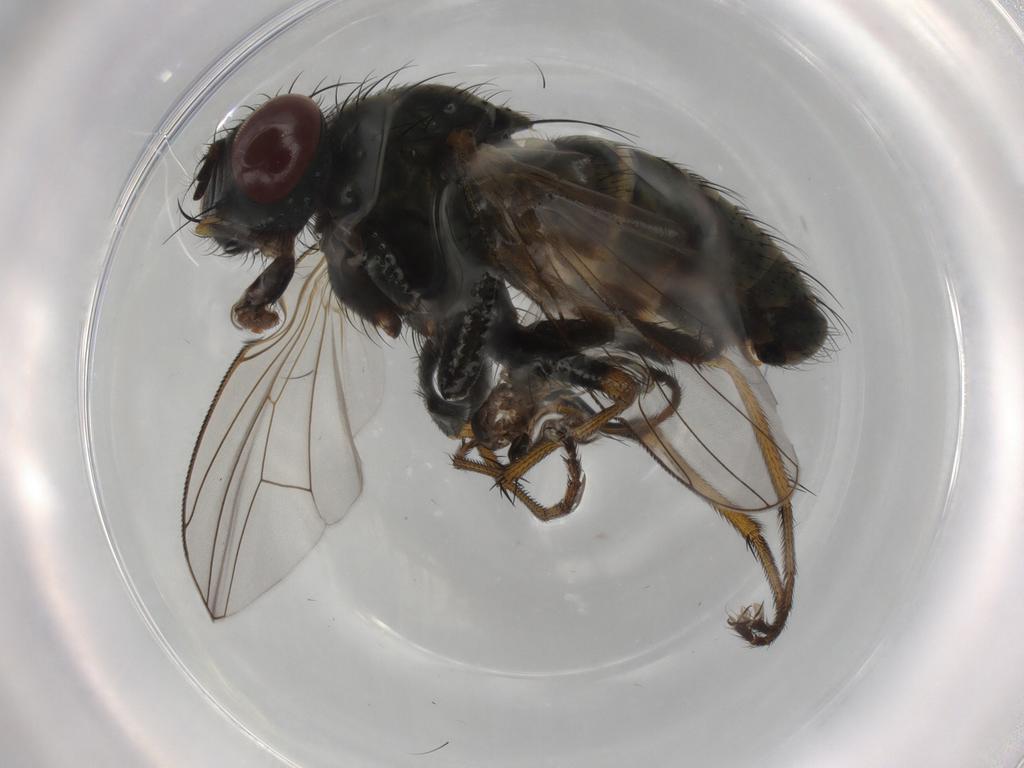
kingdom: Animalia
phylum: Arthropoda
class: Insecta
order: Diptera
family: Muscidae
